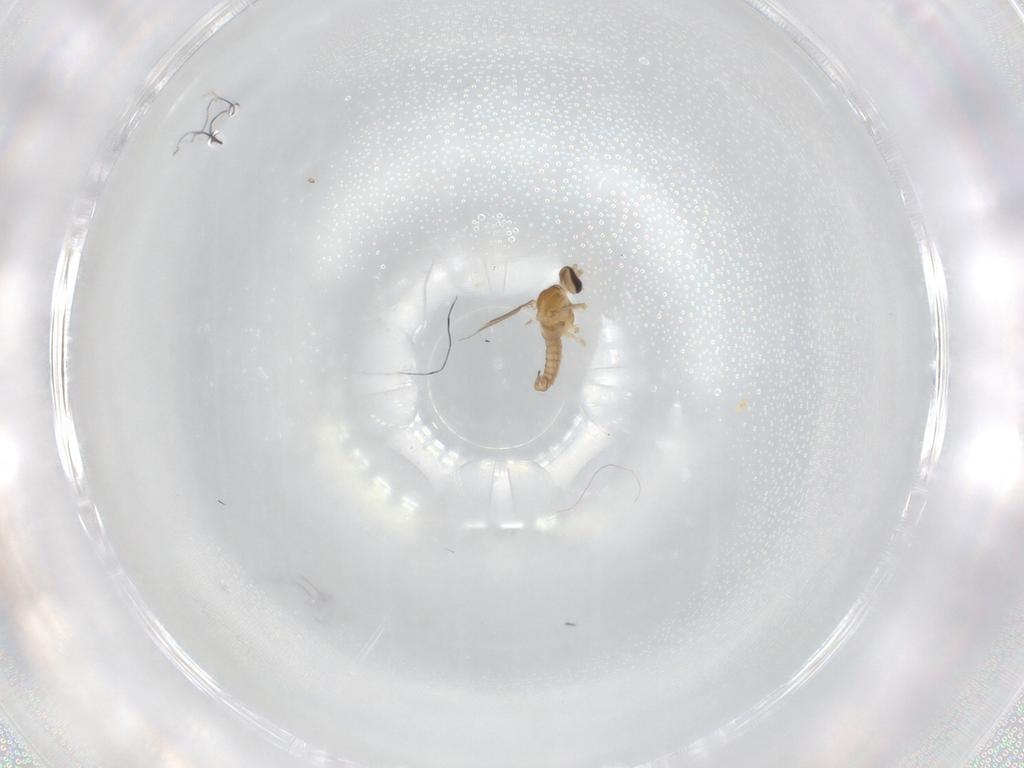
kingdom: Animalia
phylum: Arthropoda
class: Insecta
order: Diptera
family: Cecidomyiidae
